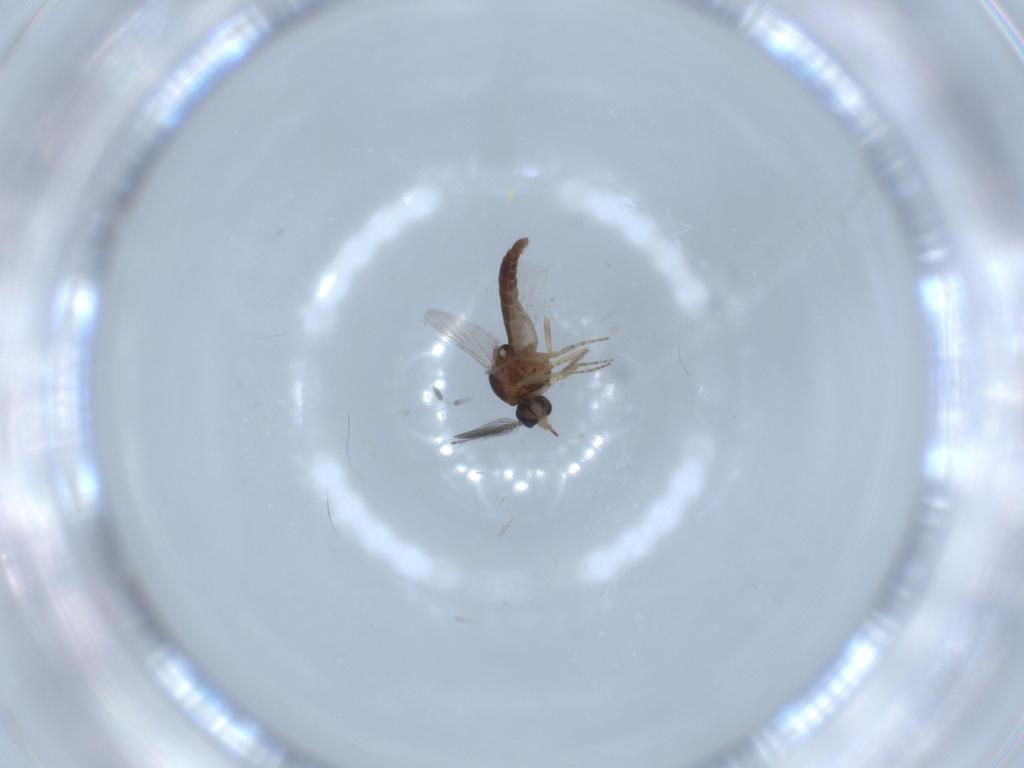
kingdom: Animalia
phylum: Arthropoda
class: Insecta
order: Diptera
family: Ceratopogonidae
